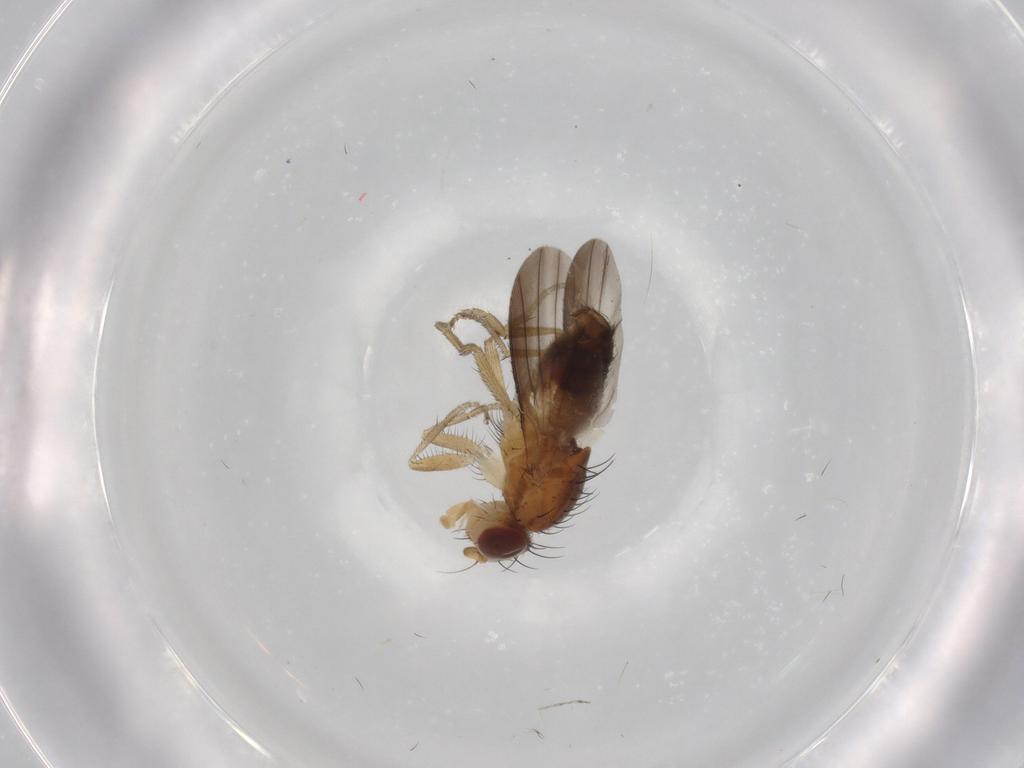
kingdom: Animalia
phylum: Arthropoda
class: Insecta
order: Diptera
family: Heleomyzidae
